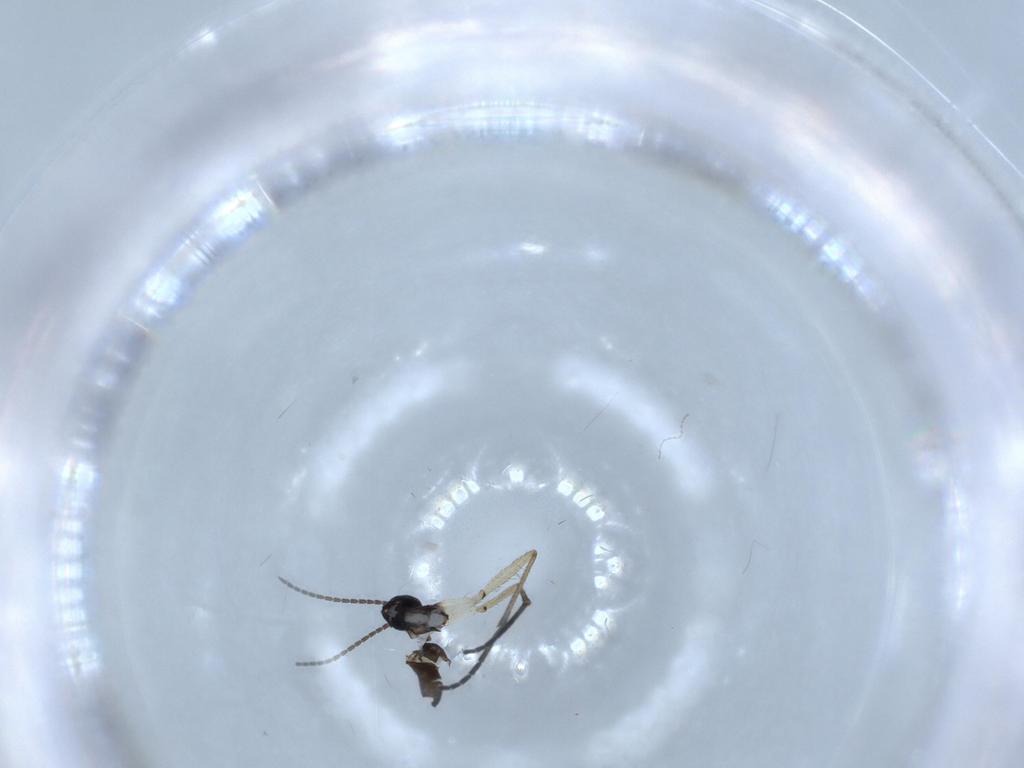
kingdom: Animalia
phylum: Arthropoda
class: Insecta
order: Diptera
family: Sciaridae
